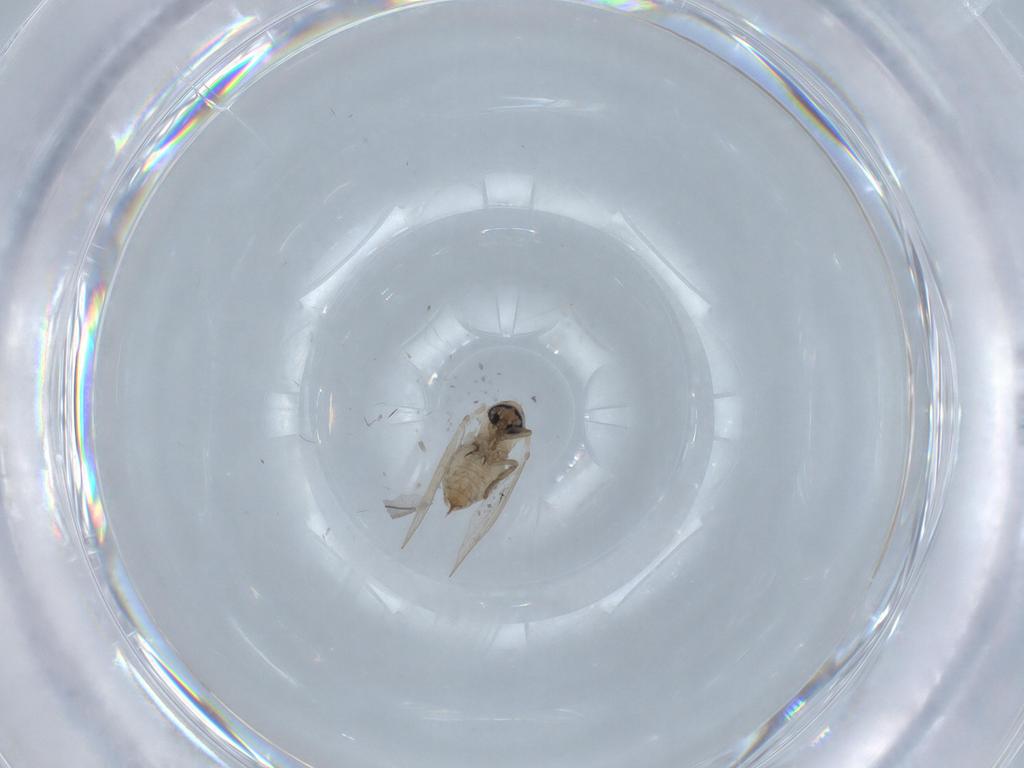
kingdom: Animalia
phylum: Arthropoda
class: Insecta
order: Diptera
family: Psychodidae
